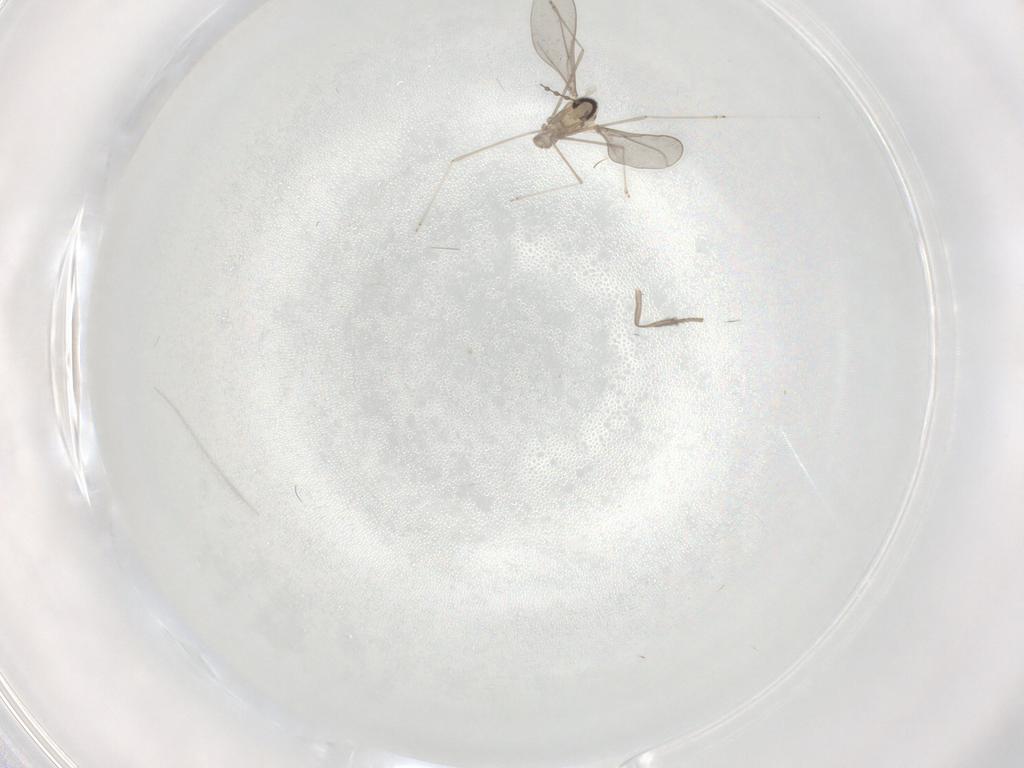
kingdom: Animalia
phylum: Arthropoda
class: Insecta
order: Diptera
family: Psychodidae
